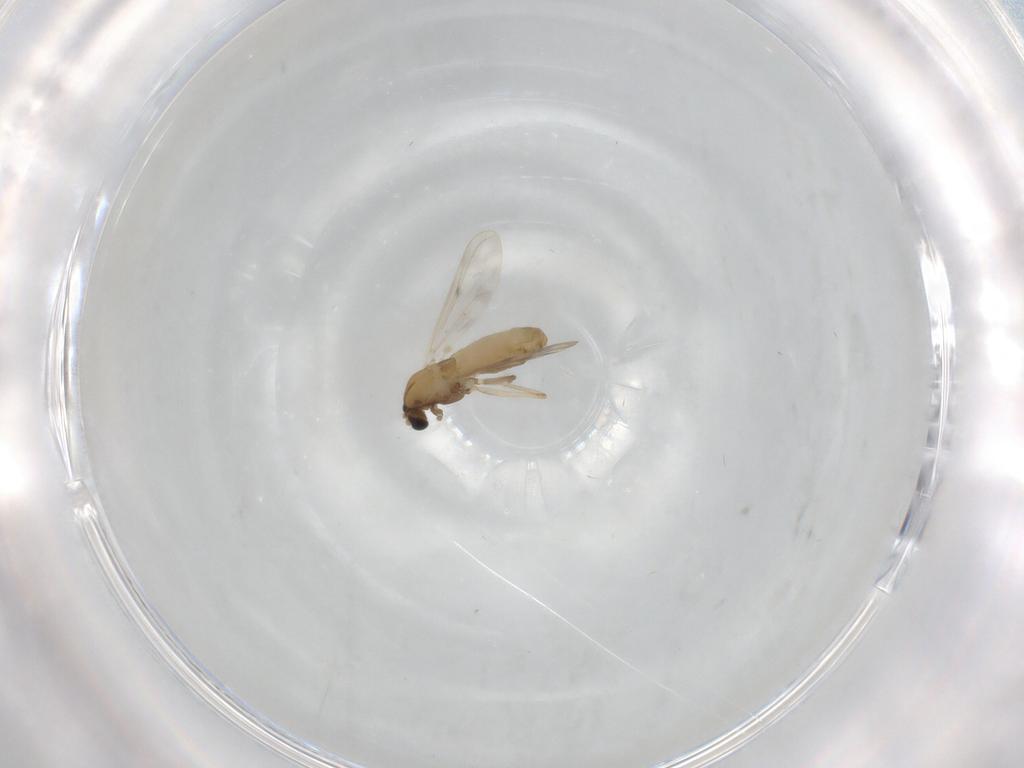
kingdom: Animalia
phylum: Arthropoda
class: Insecta
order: Diptera
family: Chironomidae
